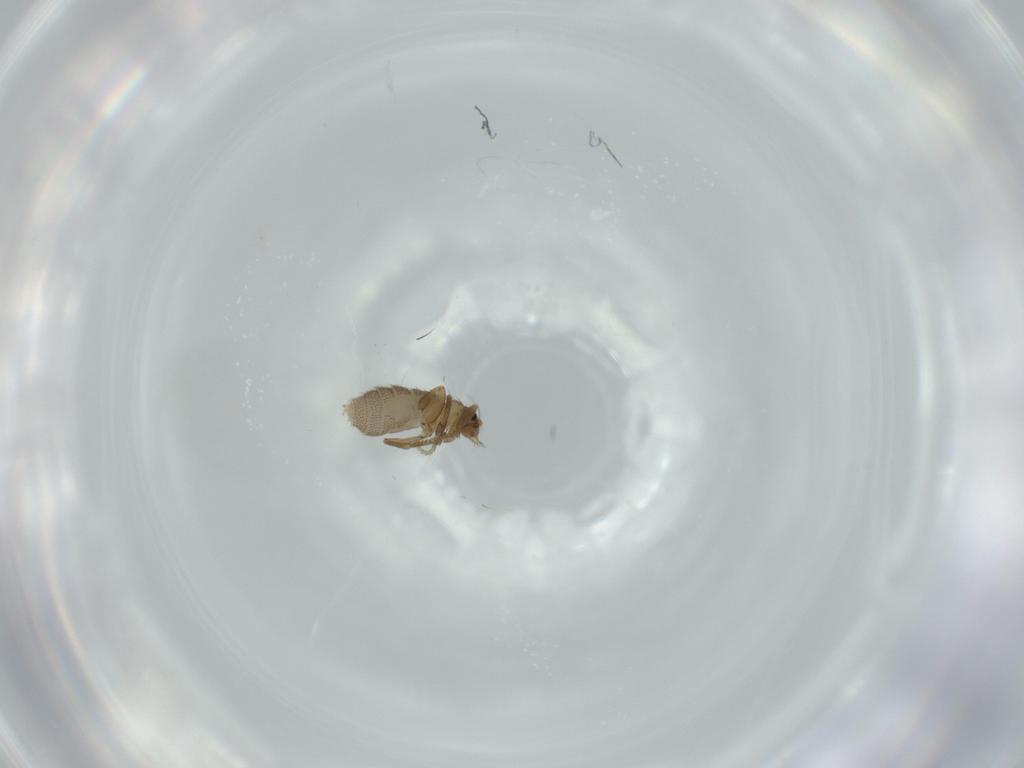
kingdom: Animalia
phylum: Arthropoda
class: Insecta
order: Diptera
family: Phoridae
